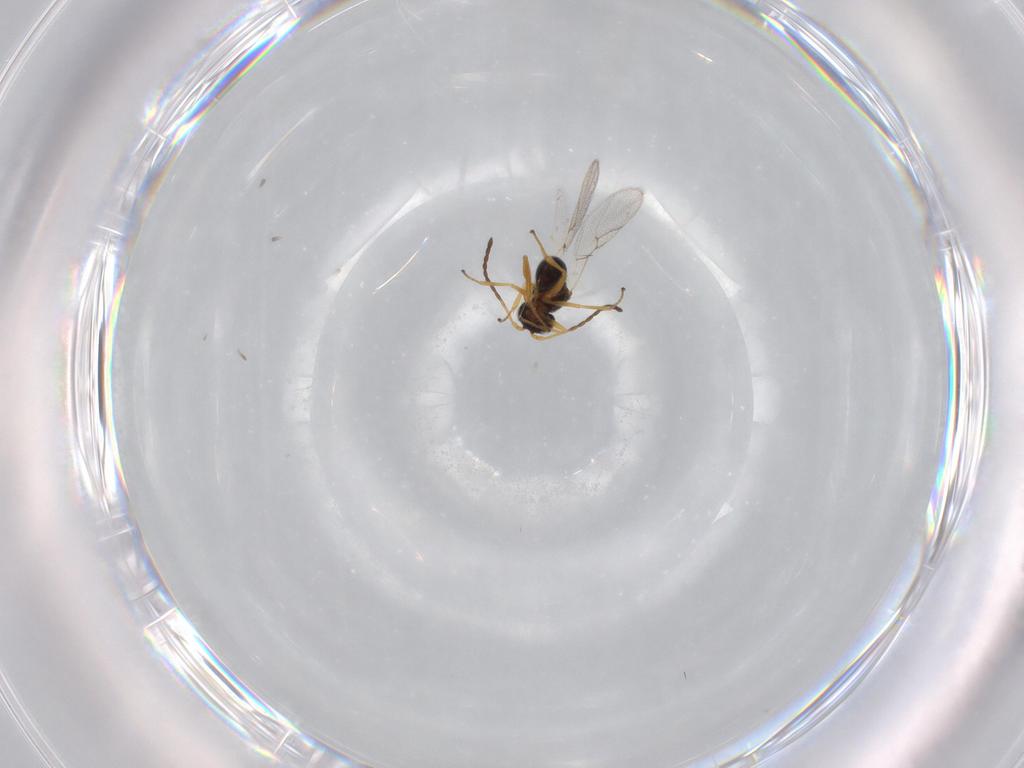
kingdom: Animalia
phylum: Arthropoda
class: Insecta
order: Hymenoptera
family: Figitidae
